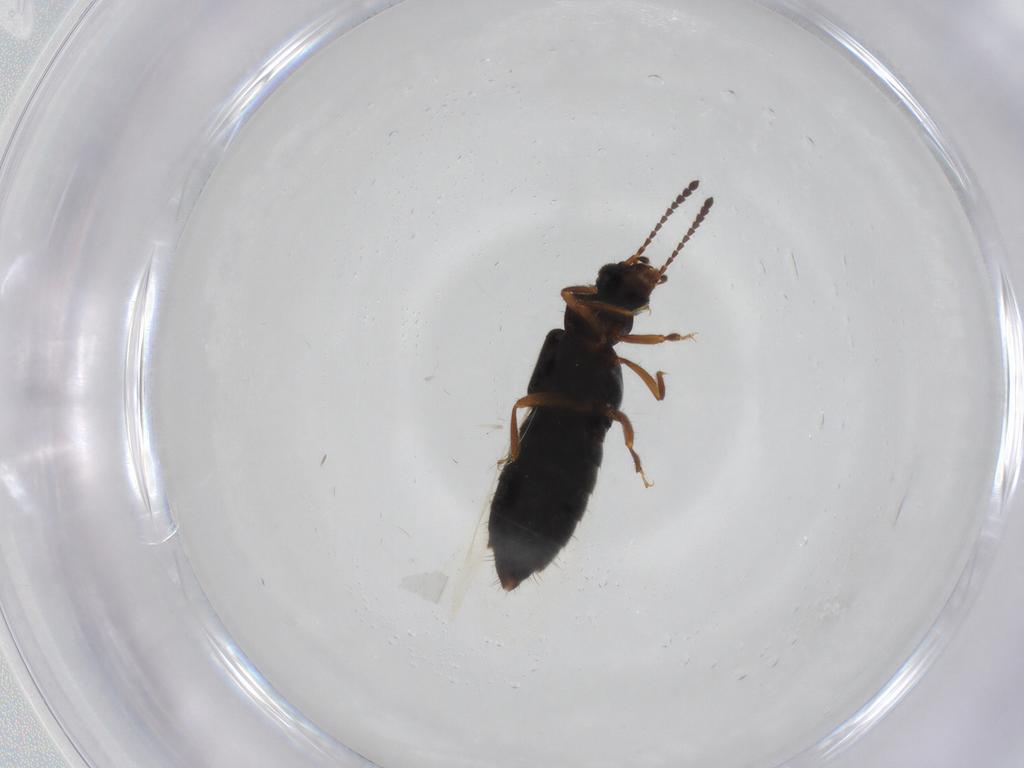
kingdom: Animalia
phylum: Arthropoda
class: Insecta
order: Coleoptera
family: Staphylinidae
